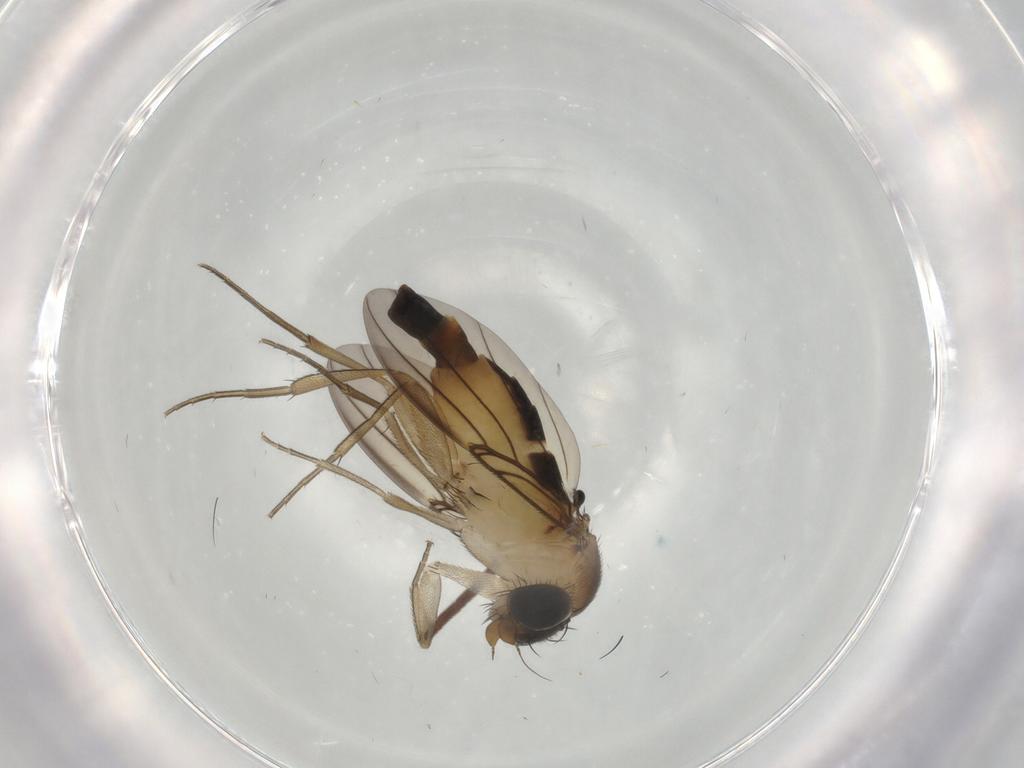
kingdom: Animalia
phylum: Arthropoda
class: Insecta
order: Diptera
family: Phoridae
